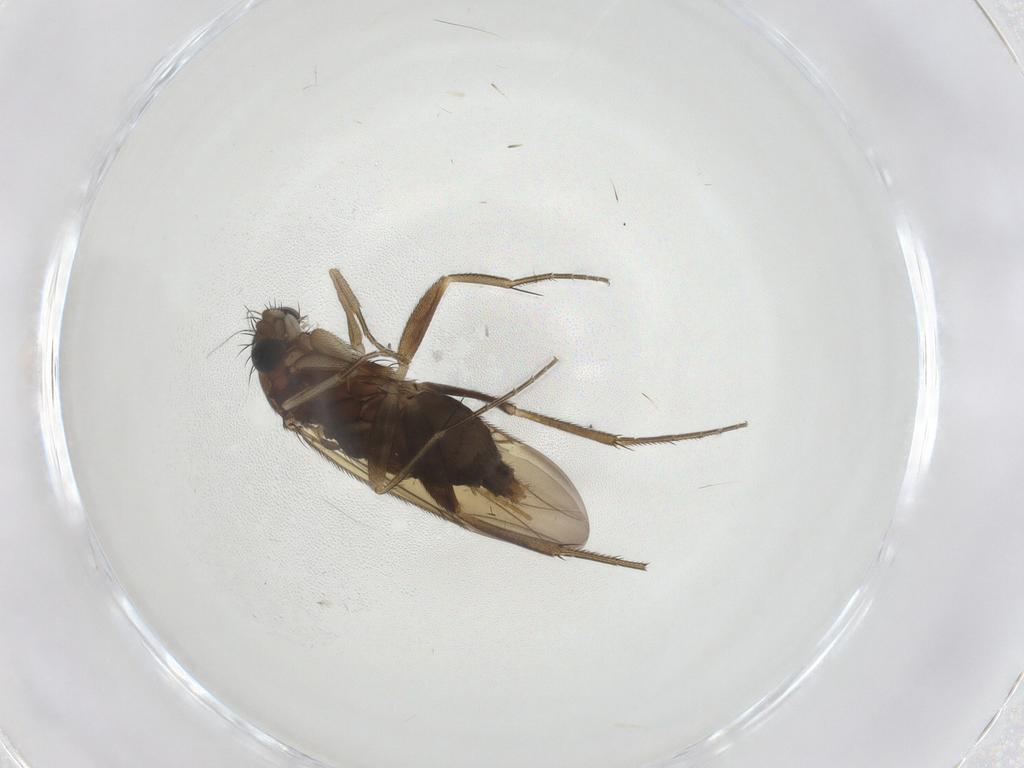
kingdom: Animalia
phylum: Arthropoda
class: Insecta
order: Diptera
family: Phoridae
